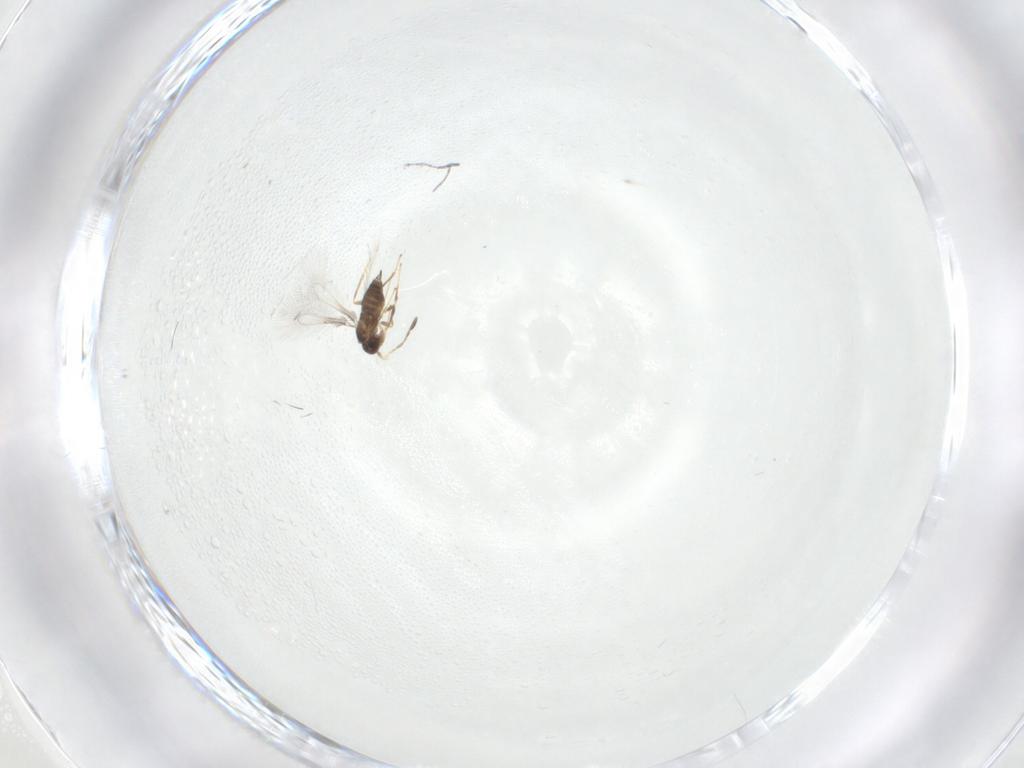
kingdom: Animalia
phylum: Arthropoda
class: Insecta
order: Hymenoptera
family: Mymaridae
